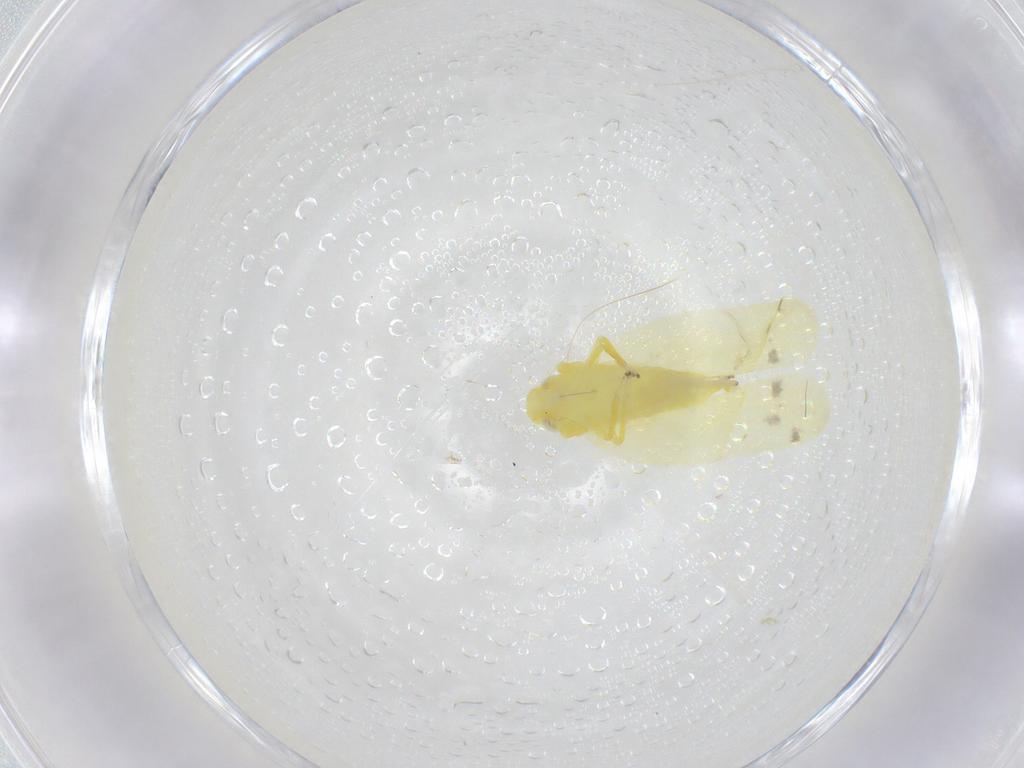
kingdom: Animalia
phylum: Arthropoda
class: Insecta
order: Hemiptera
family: Cicadellidae
